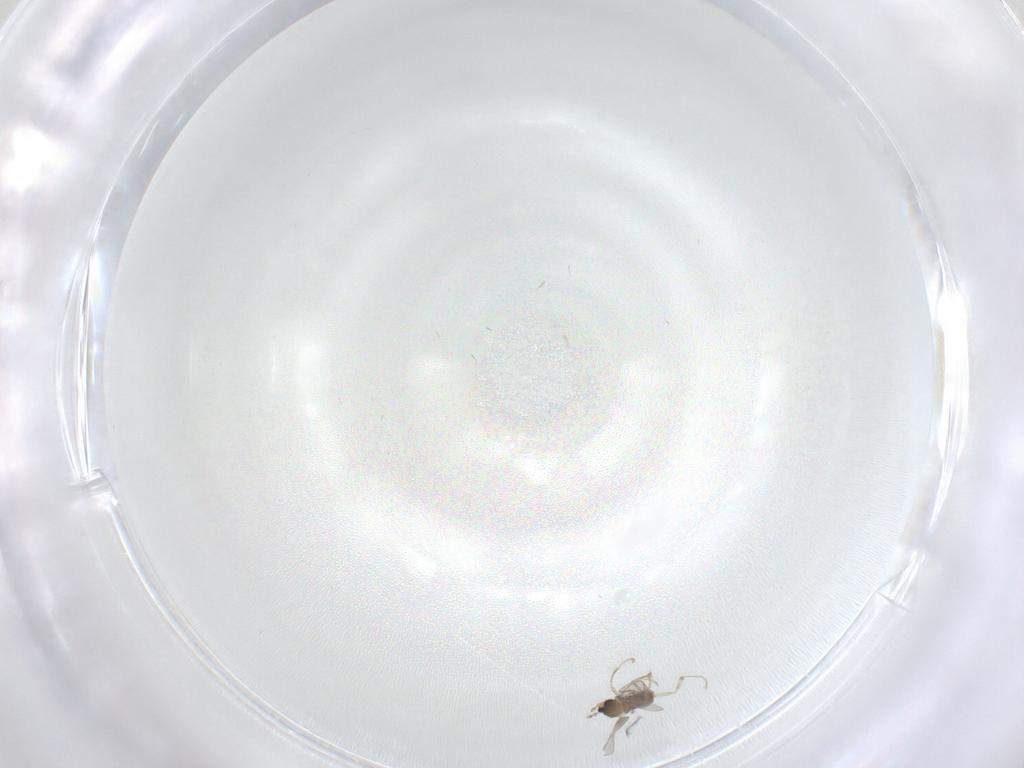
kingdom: Animalia
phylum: Arthropoda
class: Insecta
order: Diptera
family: Cecidomyiidae
